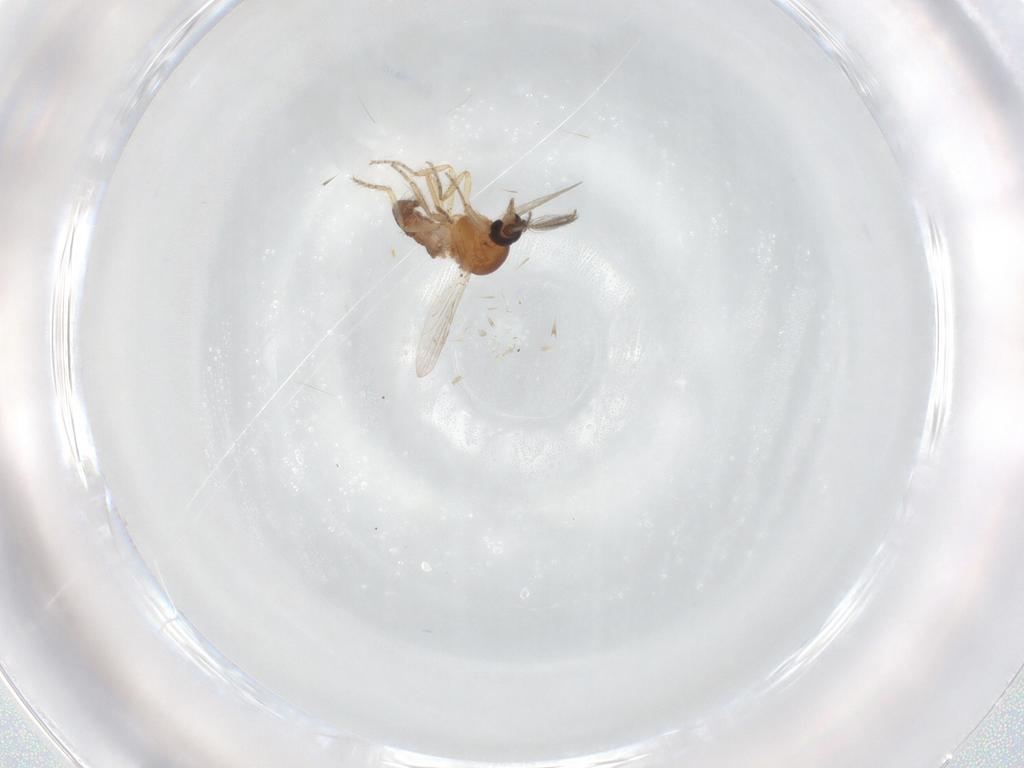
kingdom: Animalia
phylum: Arthropoda
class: Insecta
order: Diptera
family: Ceratopogonidae
